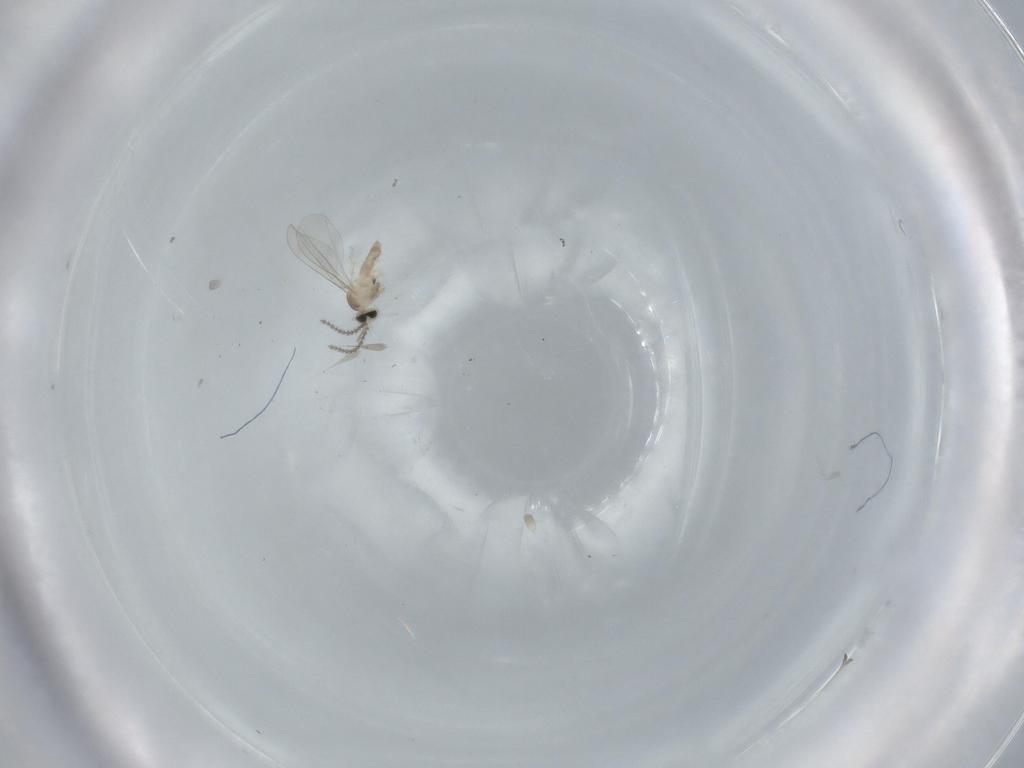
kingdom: Animalia
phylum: Arthropoda
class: Insecta
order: Diptera
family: Cecidomyiidae
